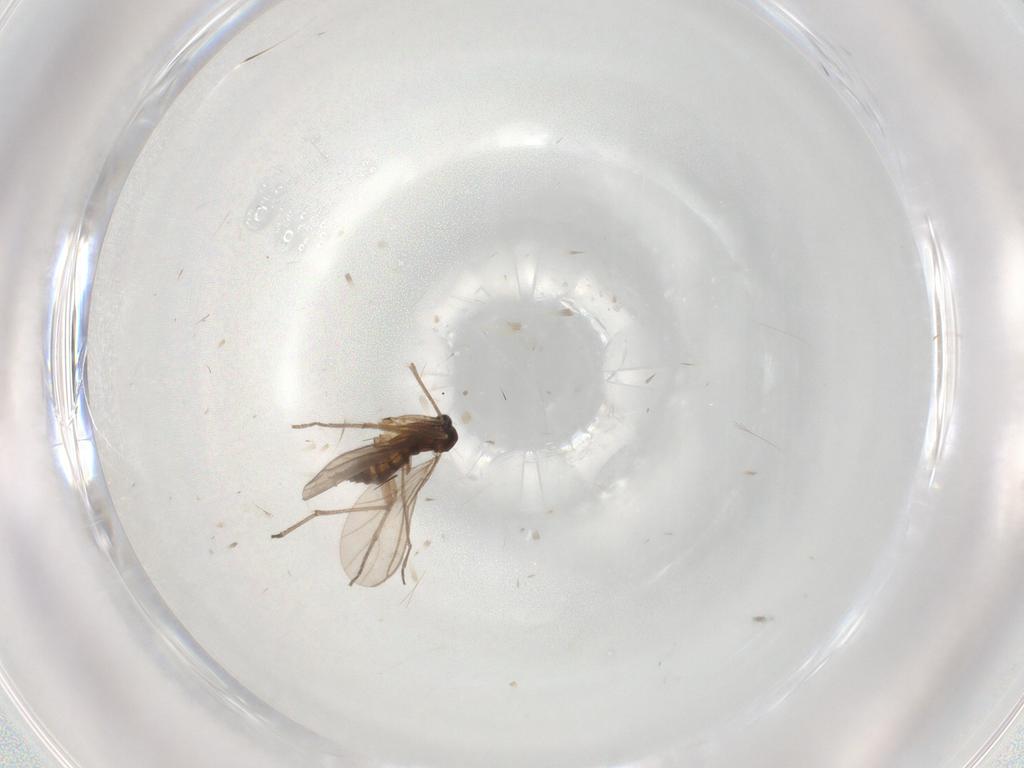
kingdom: Animalia
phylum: Arthropoda
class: Insecta
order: Diptera
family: Sciaridae
